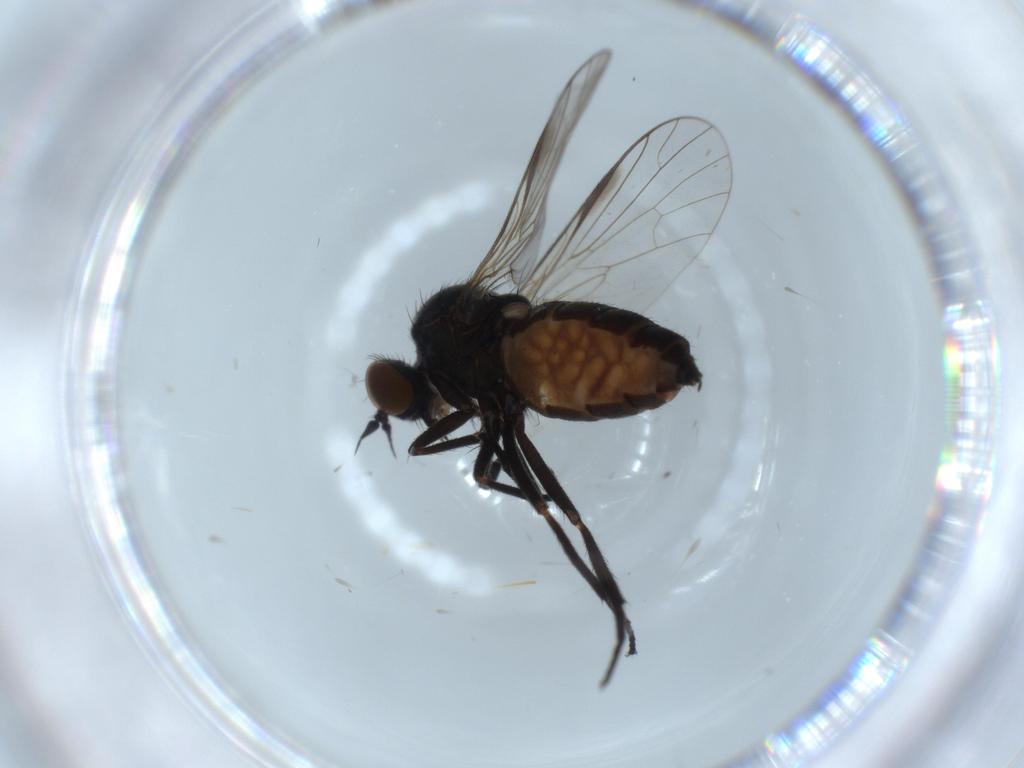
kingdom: Animalia
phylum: Arthropoda
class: Insecta
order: Diptera
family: Empididae
